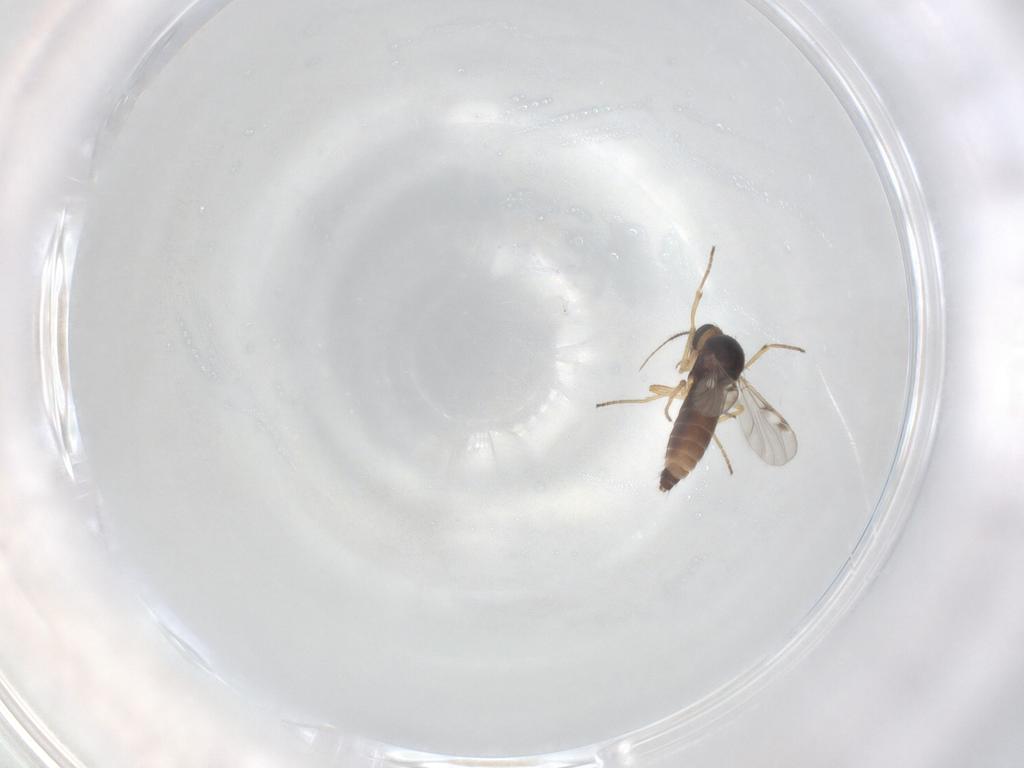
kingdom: Animalia
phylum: Arthropoda
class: Insecta
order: Diptera
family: Ceratopogonidae
